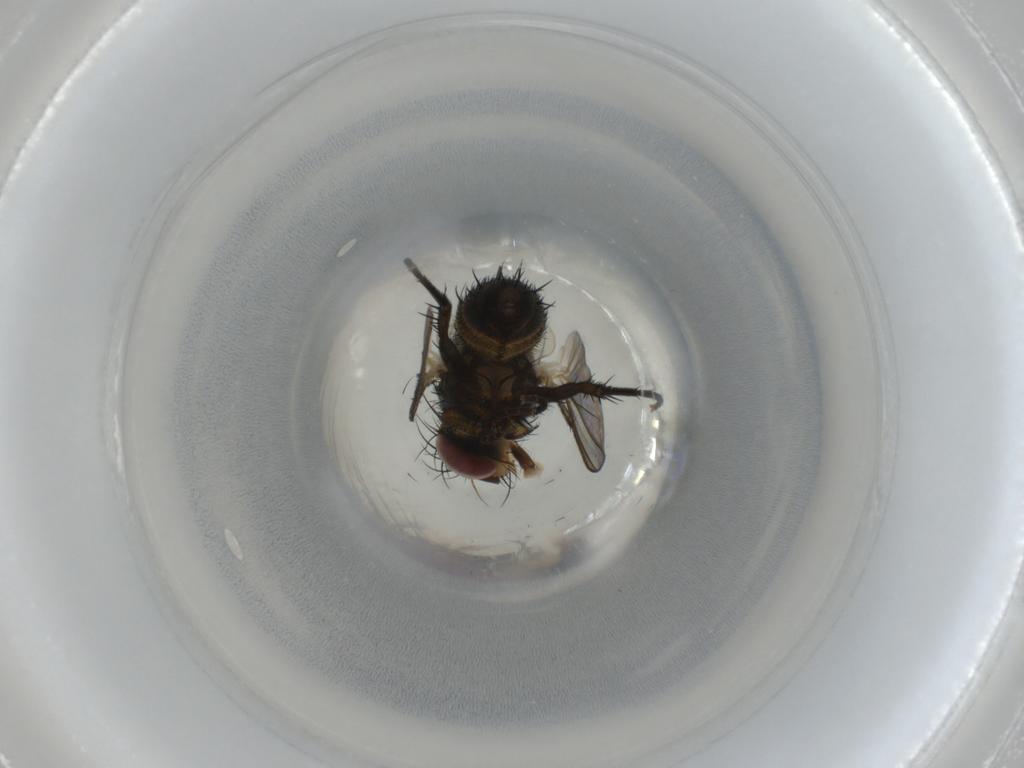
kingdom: Animalia
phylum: Arthropoda
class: Insecta
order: Diptera
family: Tachinidae
